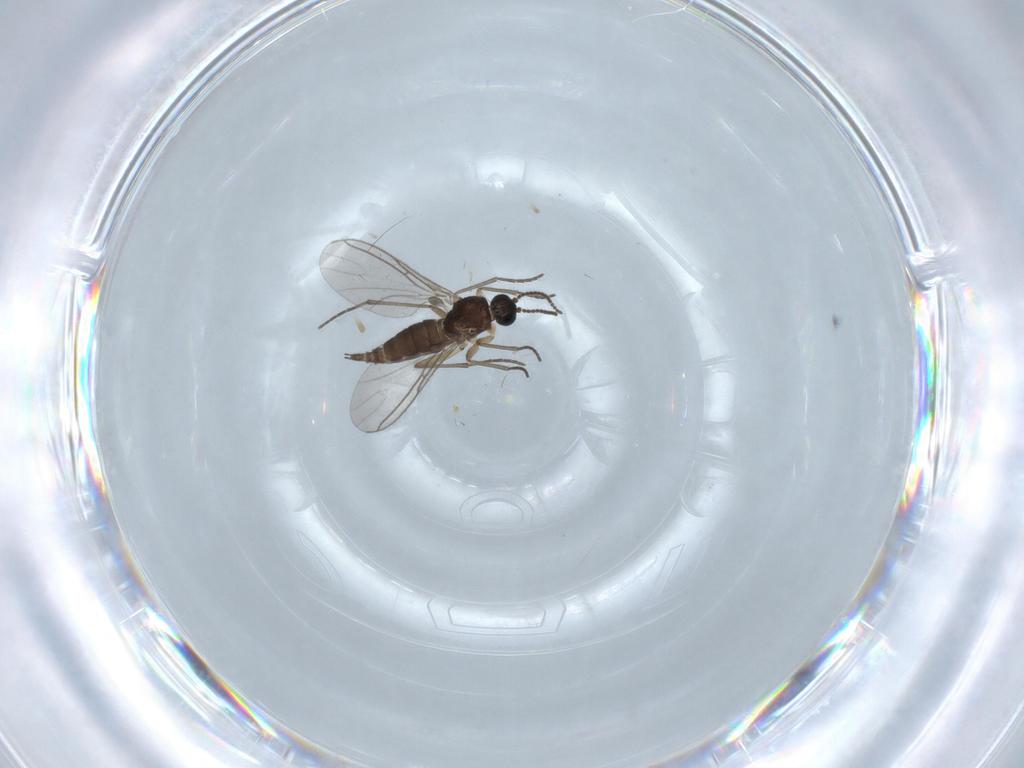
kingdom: Animalia
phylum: Arthropoda
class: Insecta
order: Diptera
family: Sciaridae
